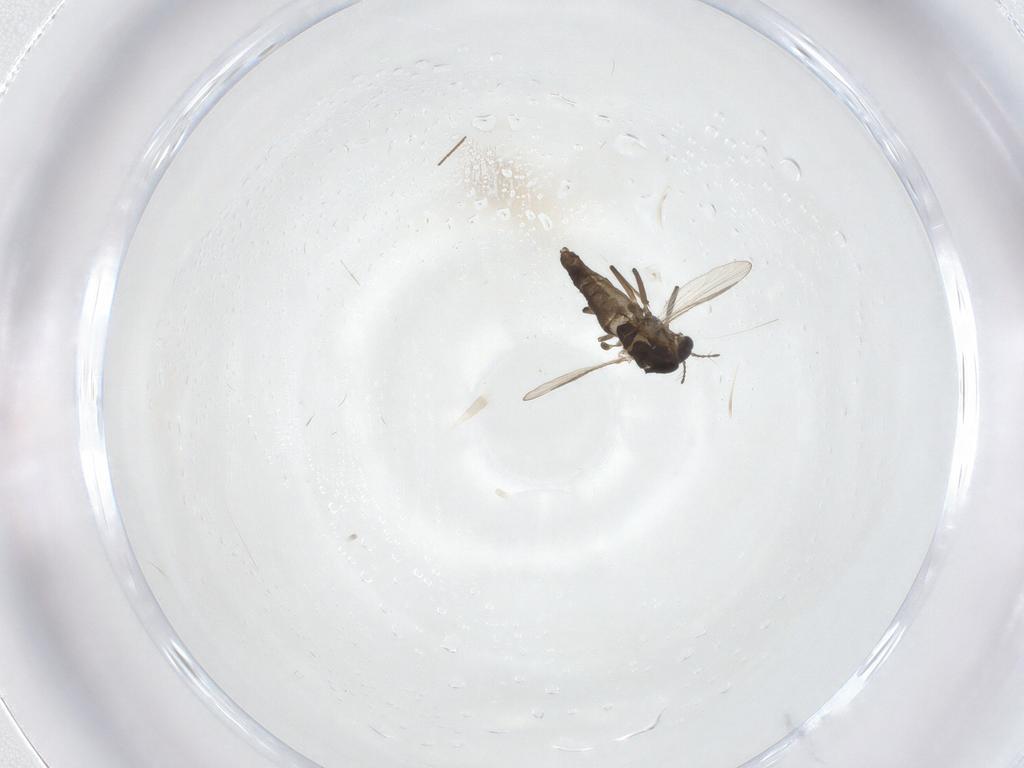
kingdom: Animalia
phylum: Arthropoda
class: Insecta
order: Diptera
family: Chironomidae
